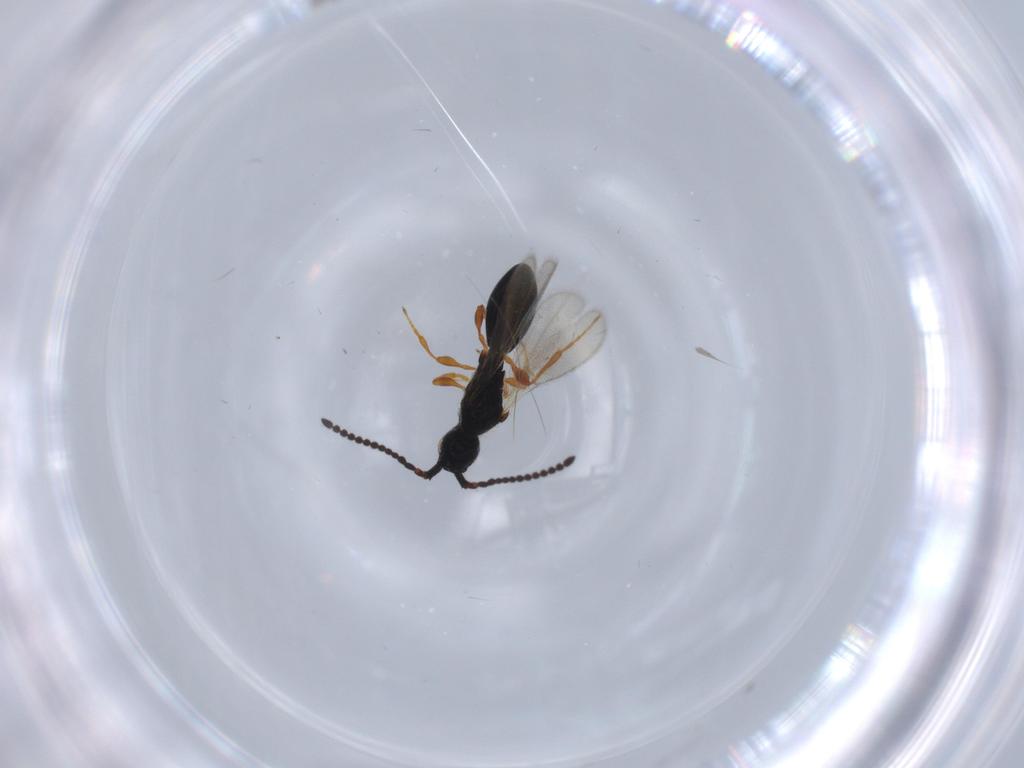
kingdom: Animalia
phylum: Arthropoda
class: Insecta
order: Hymenoptera
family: Diapriidae
